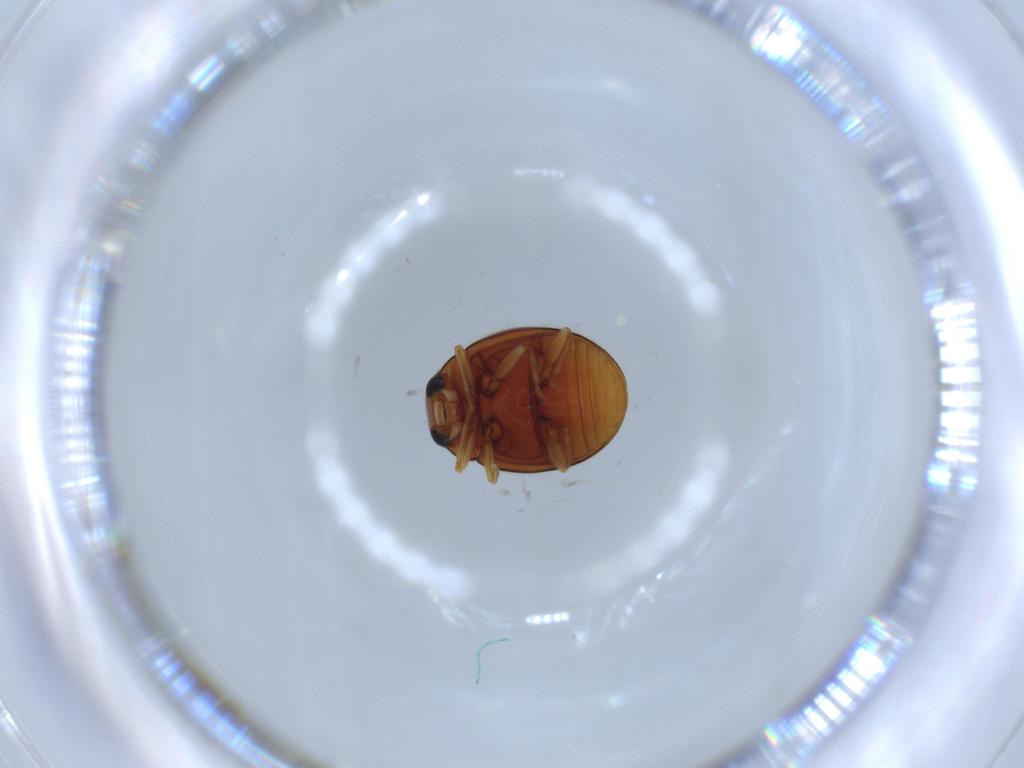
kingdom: Animalia
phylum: Arthropoda
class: Insecta
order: Coleoptera
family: Coccinellidae
